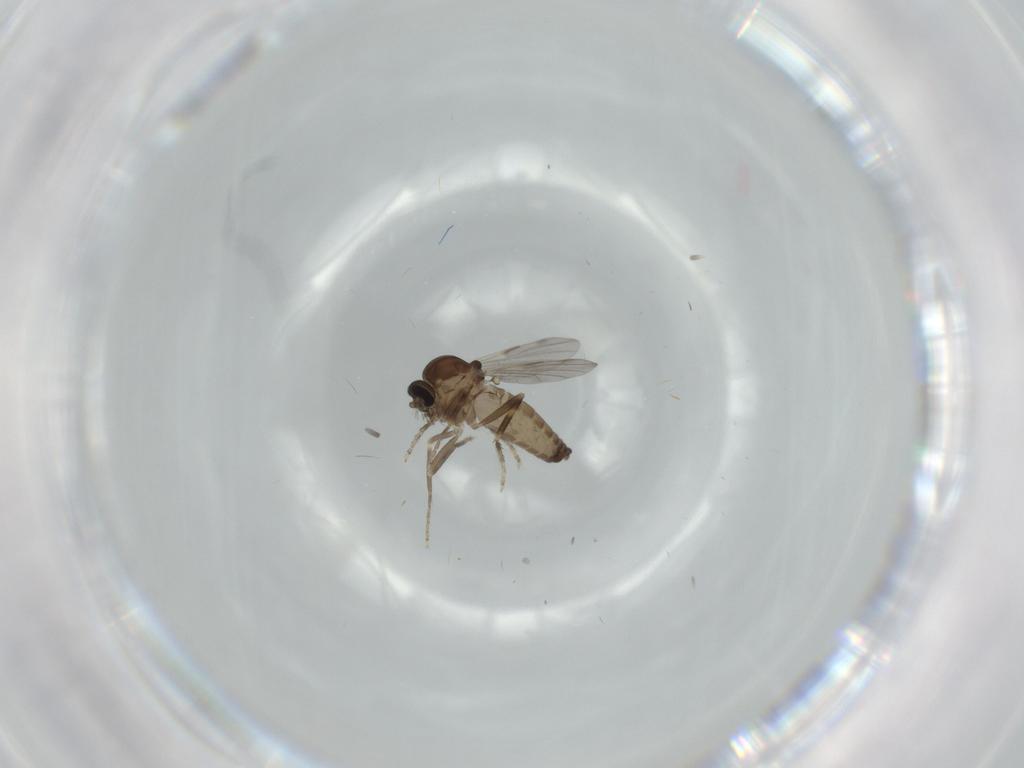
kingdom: Animalia
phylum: Arthropoda
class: Insecta
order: Diptera
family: Ceratopogonidae
